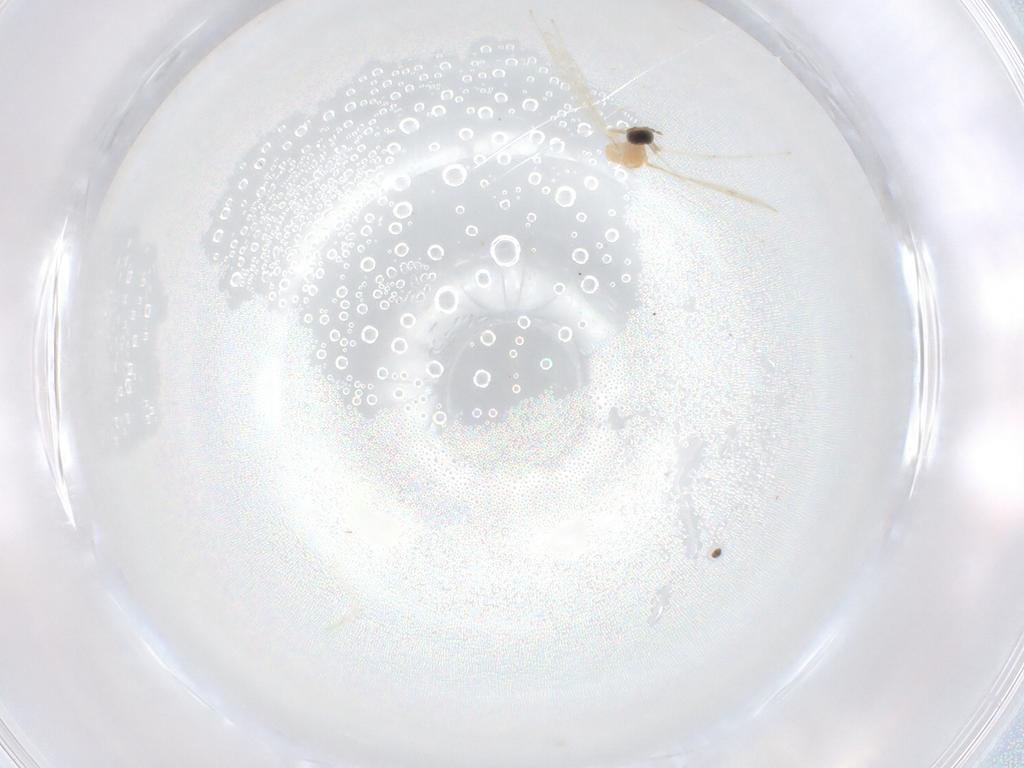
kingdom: Animalia
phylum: Arthropoda
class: Insecta
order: Diptera
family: Cecidomyiidae
